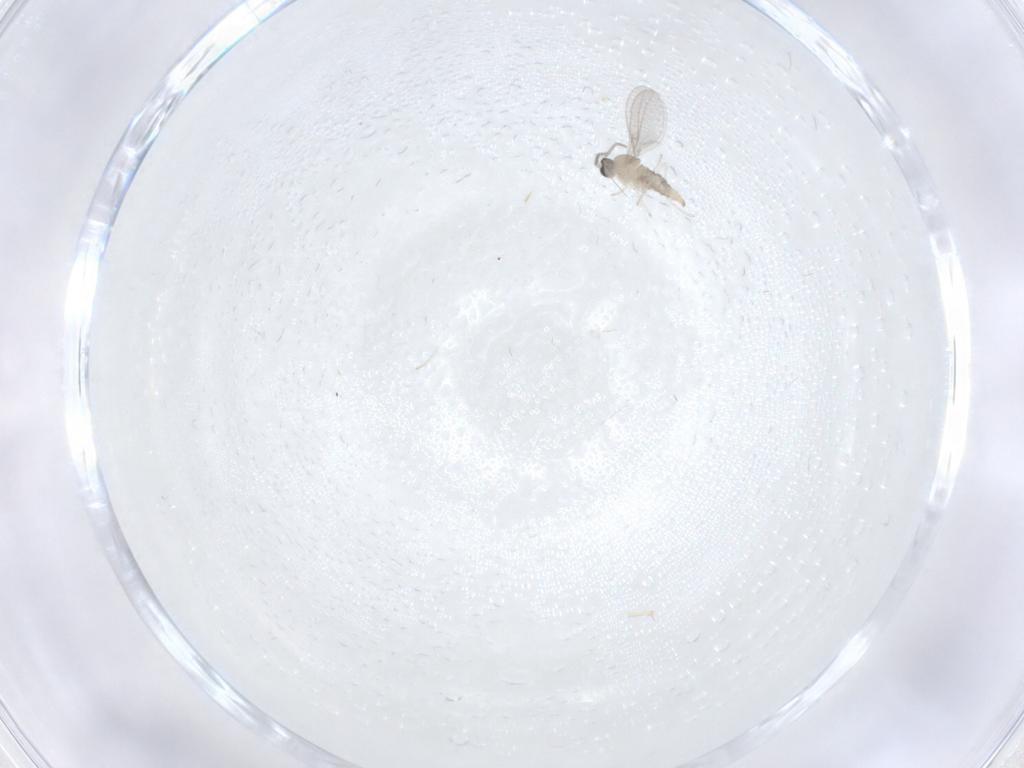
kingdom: Animalia
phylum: Arthropoda
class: Insecta
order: Diptera
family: Cecidomyiidae
